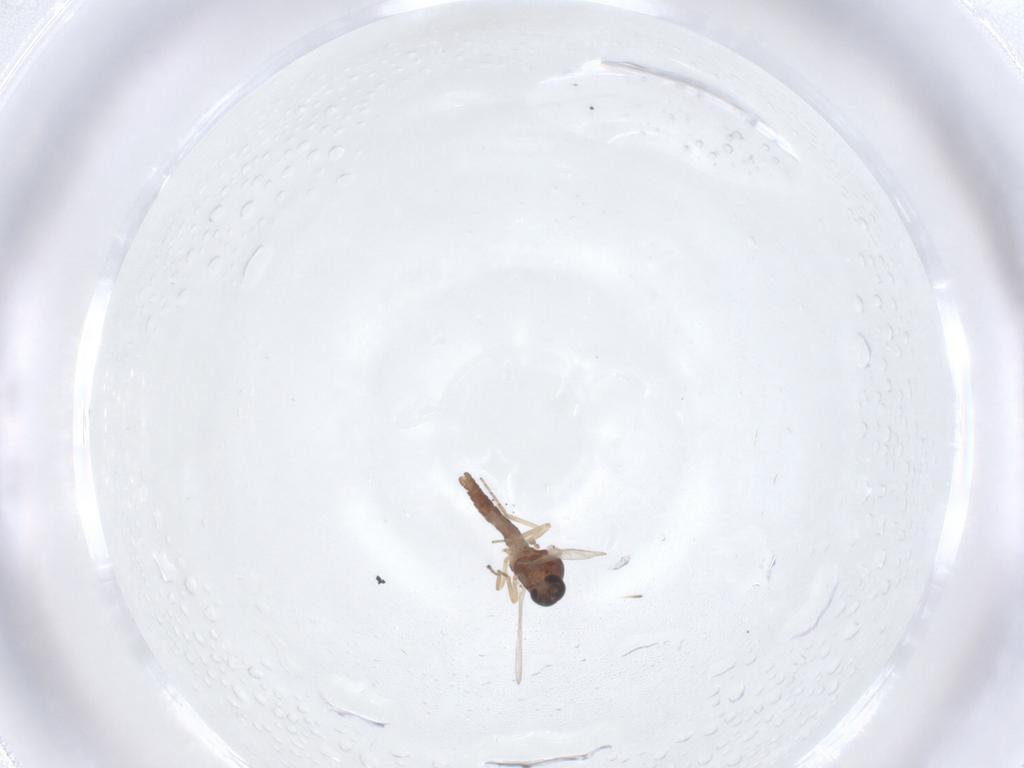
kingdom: Animalia
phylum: Arthropoda
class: Insecta
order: Diptera
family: Ceratopogonidae
